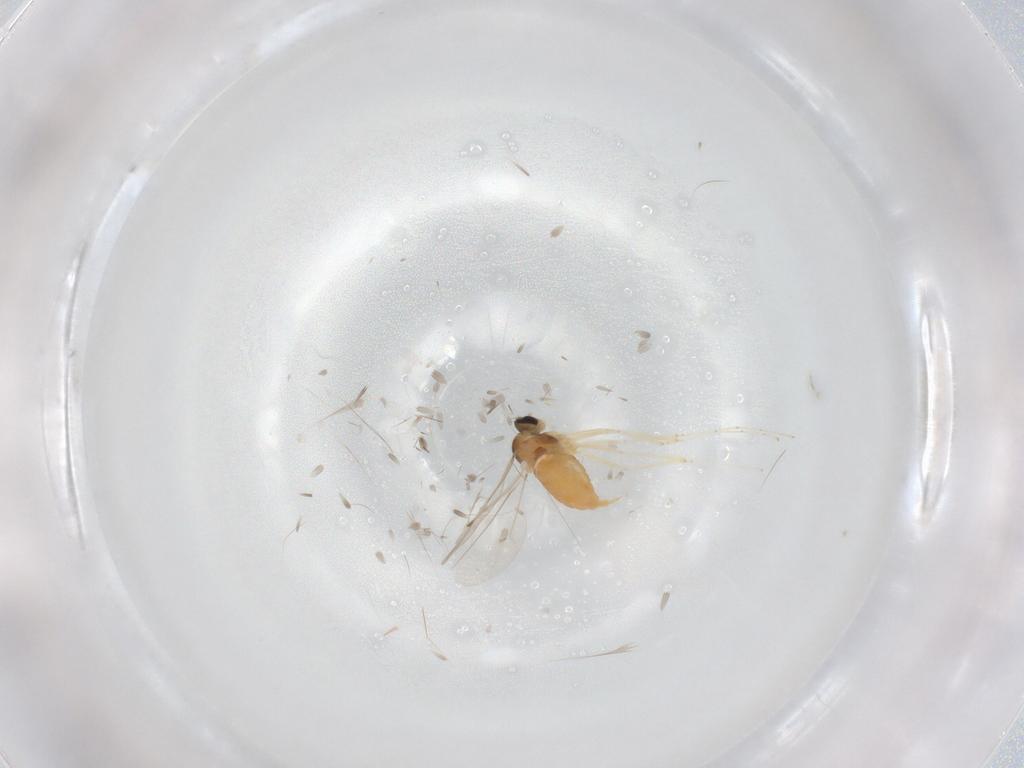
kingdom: Animalia
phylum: Arthropoda
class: Insecta
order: Diptera
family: Cecidomyiidae
